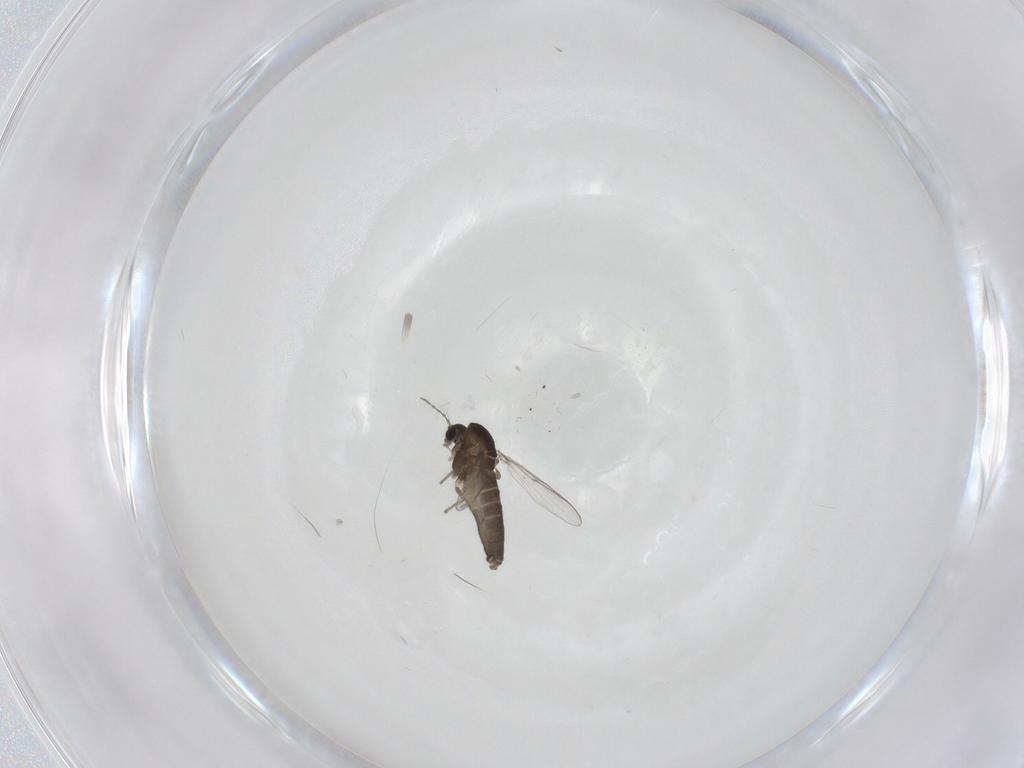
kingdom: Animalia
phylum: Arthropoda
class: Insecta
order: Diptera
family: Chironomidae
